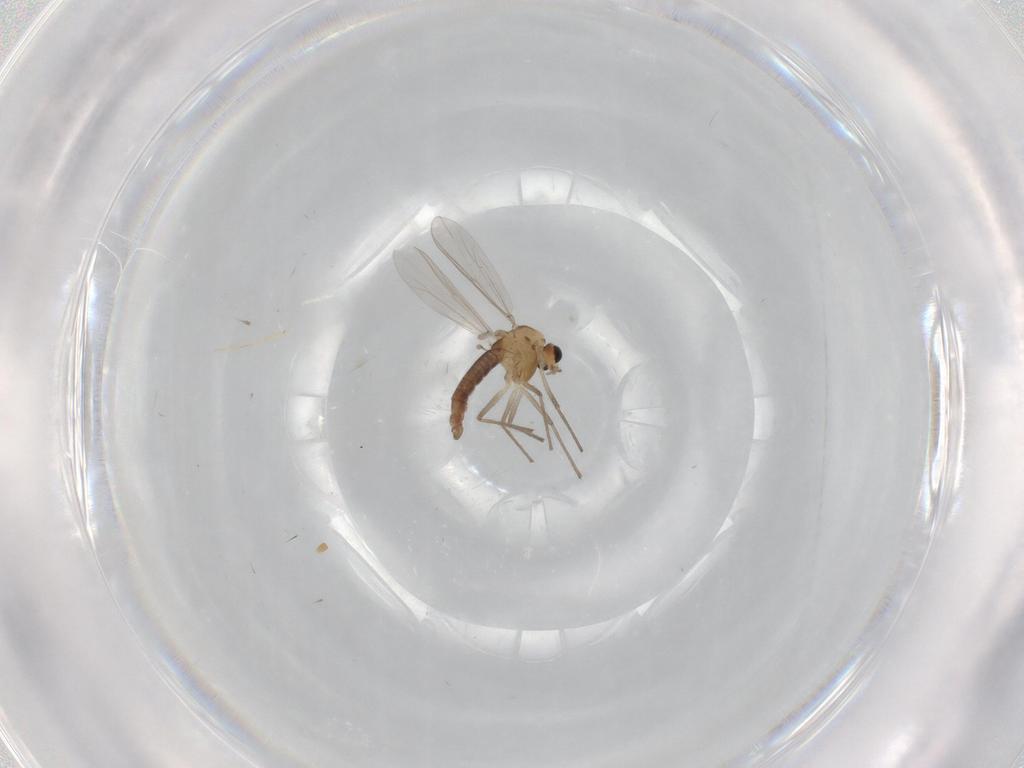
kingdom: Animalia
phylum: Arthropoda
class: Insecta
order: Diptera
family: Chironomidae
